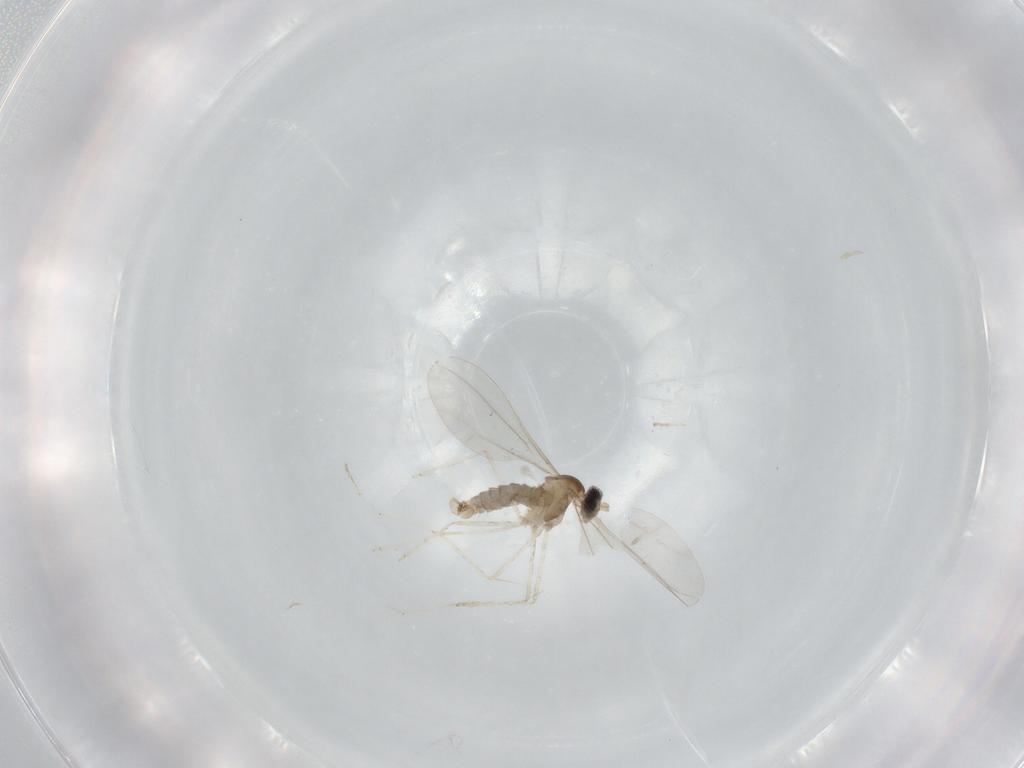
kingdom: Animalia
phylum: Arthropoda
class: Insecta
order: Diptera
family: Cecidomyiidae
